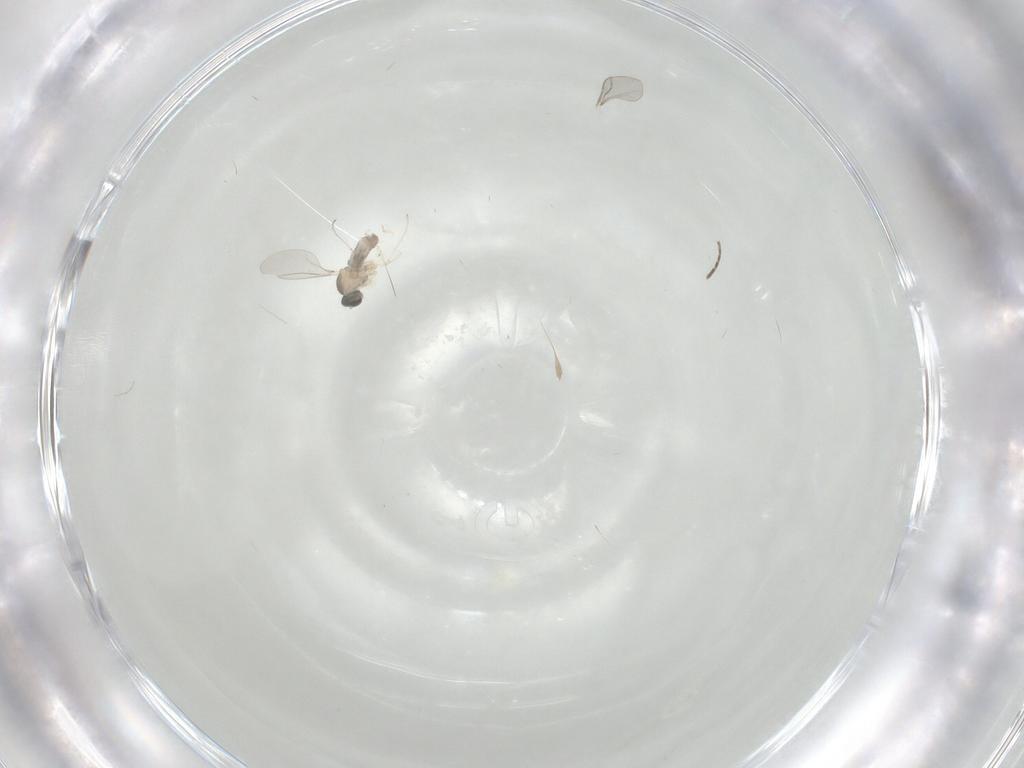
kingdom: Animalia
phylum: Arthropoda
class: Insecta
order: Diptera
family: Cecidomyiidae
